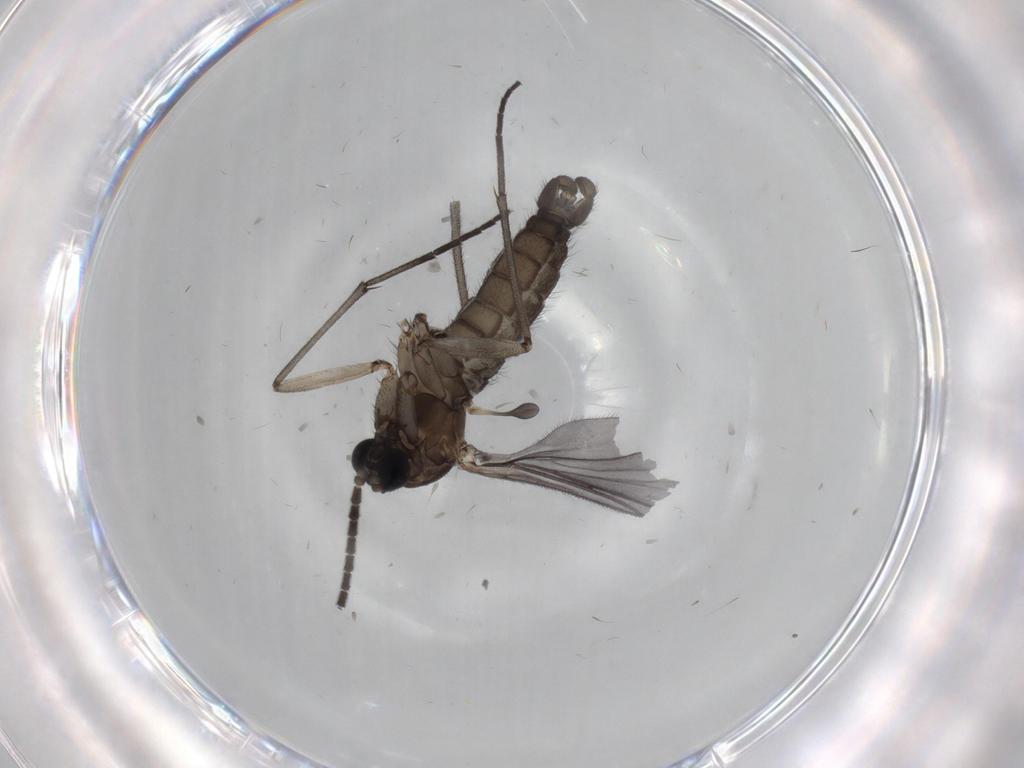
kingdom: Animalia
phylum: Arthropoda
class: Insecta
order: Diptera
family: Sciaridae
